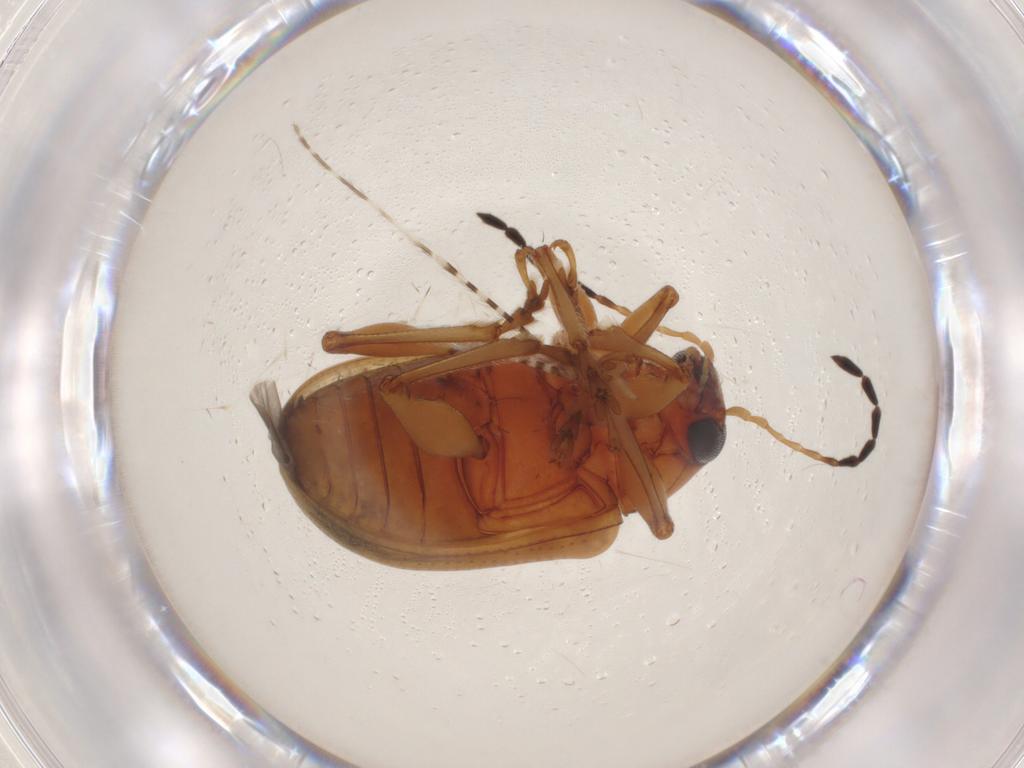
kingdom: Animalia
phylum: Arthropoda
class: Insecta
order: Coleoptera
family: Chrysomelidae
